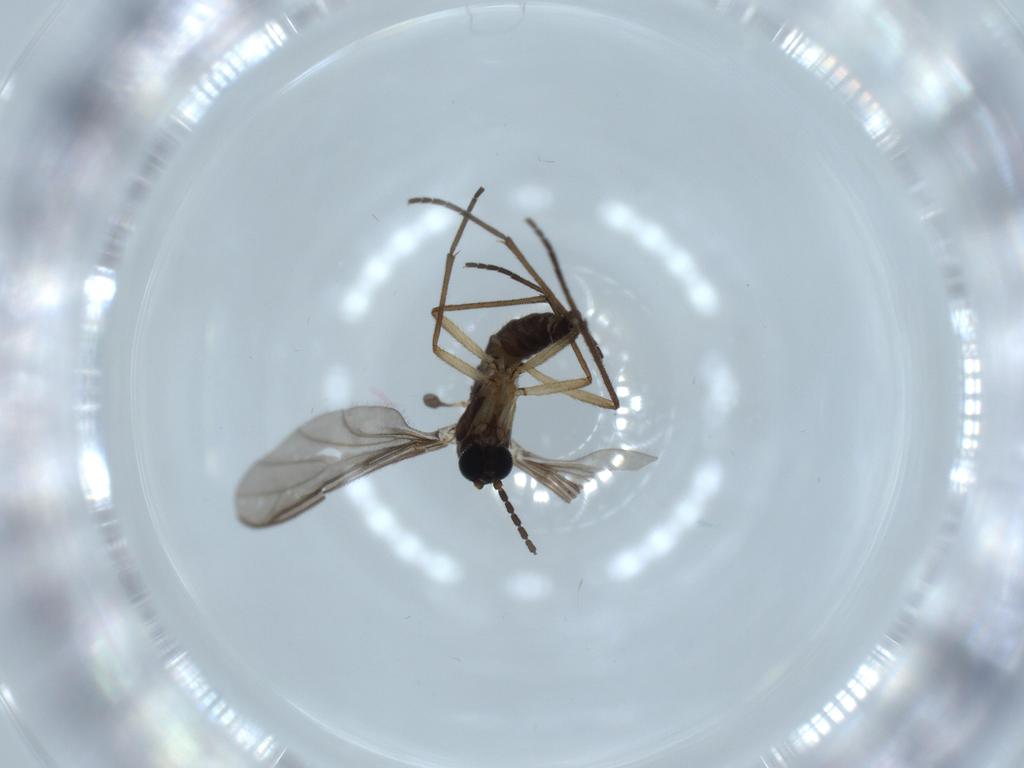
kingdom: Animalia
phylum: Arthropoda
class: Insecta
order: Diptera
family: Sciaridae
